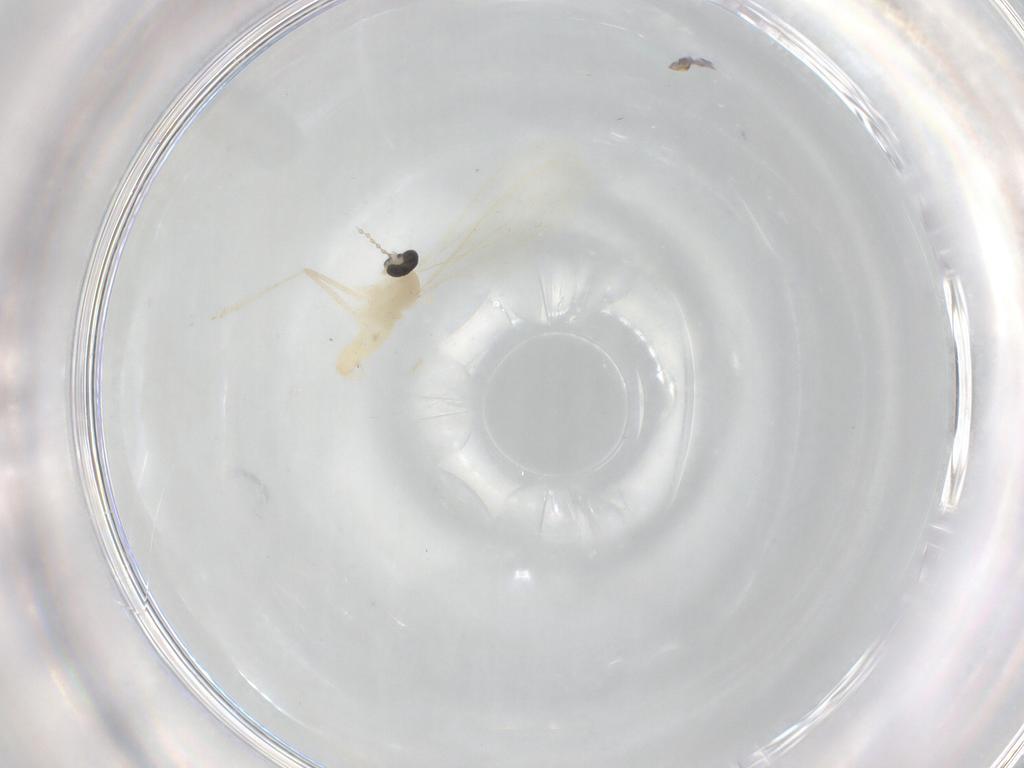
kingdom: Animalia
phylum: Arthropoda
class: Insecta
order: Diptera
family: Cecidomyiidae
